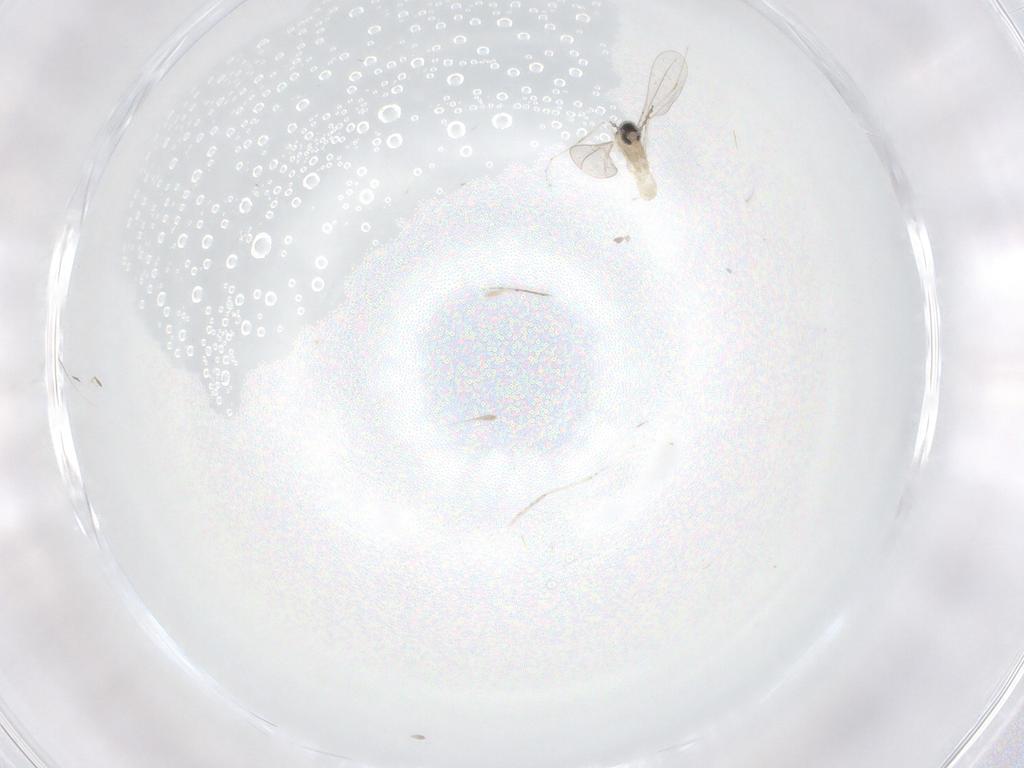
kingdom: Animalia
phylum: Arthropoda
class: Insecta
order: Diptera
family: Cecidomyiidae
